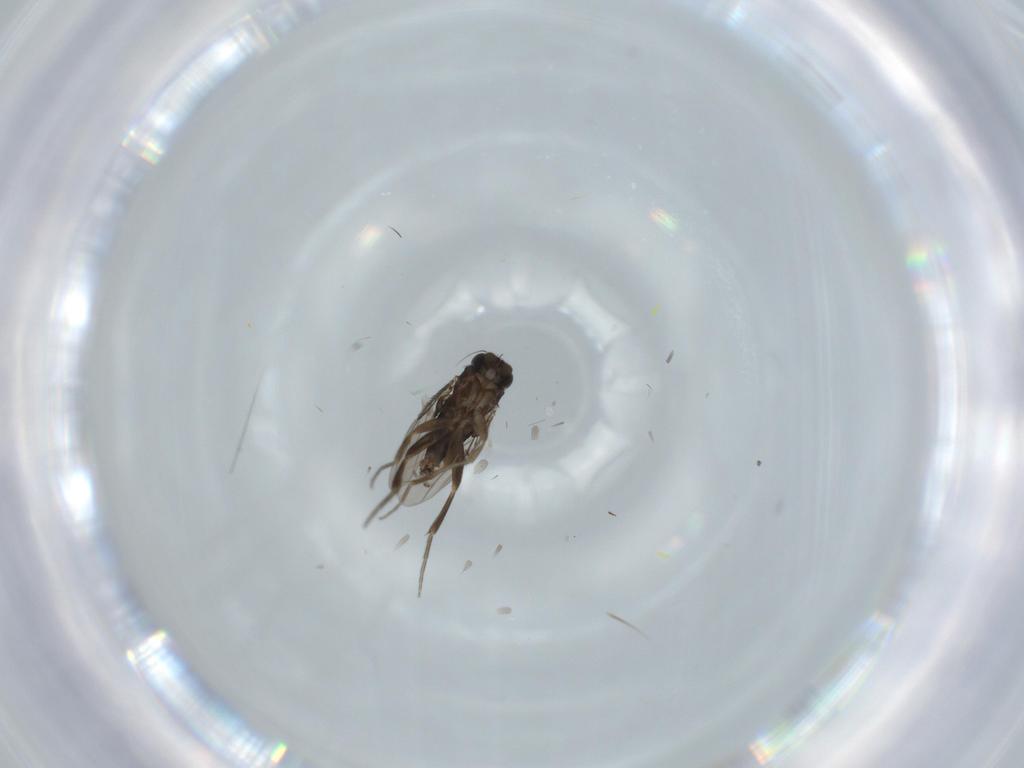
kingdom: Animalia
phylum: Arthropoda
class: Insecta
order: Diptera
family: Psychodidae
